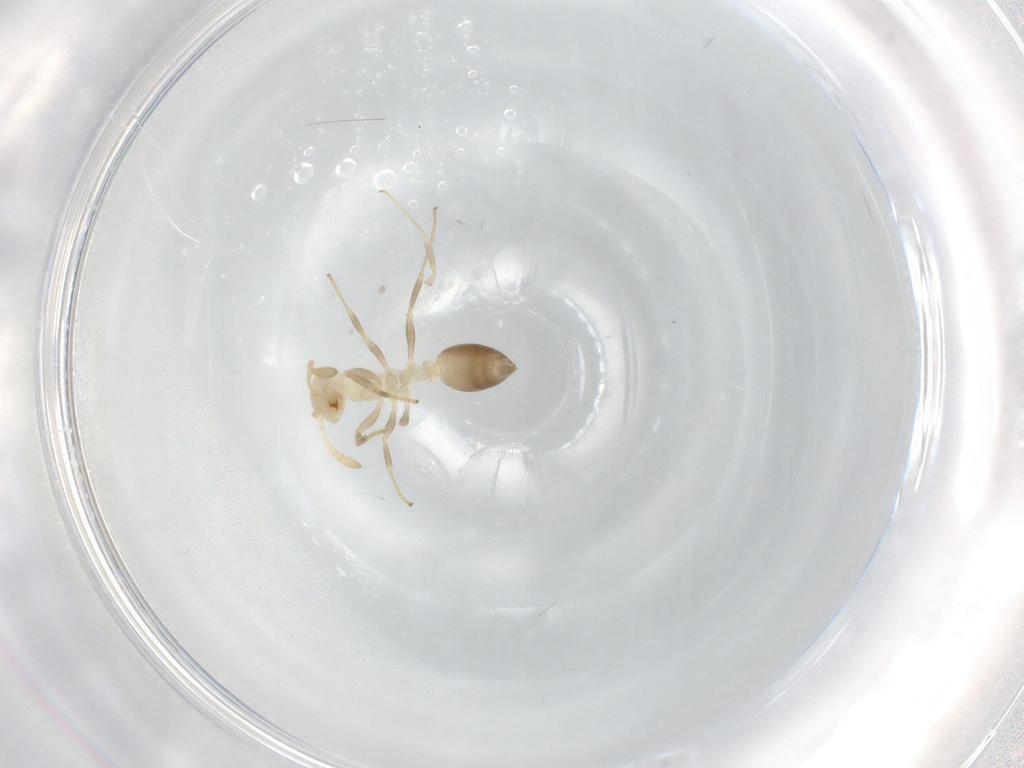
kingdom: Animalia
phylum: Arthropoda
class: Insecta
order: Hymenoptera
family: Formicidae
